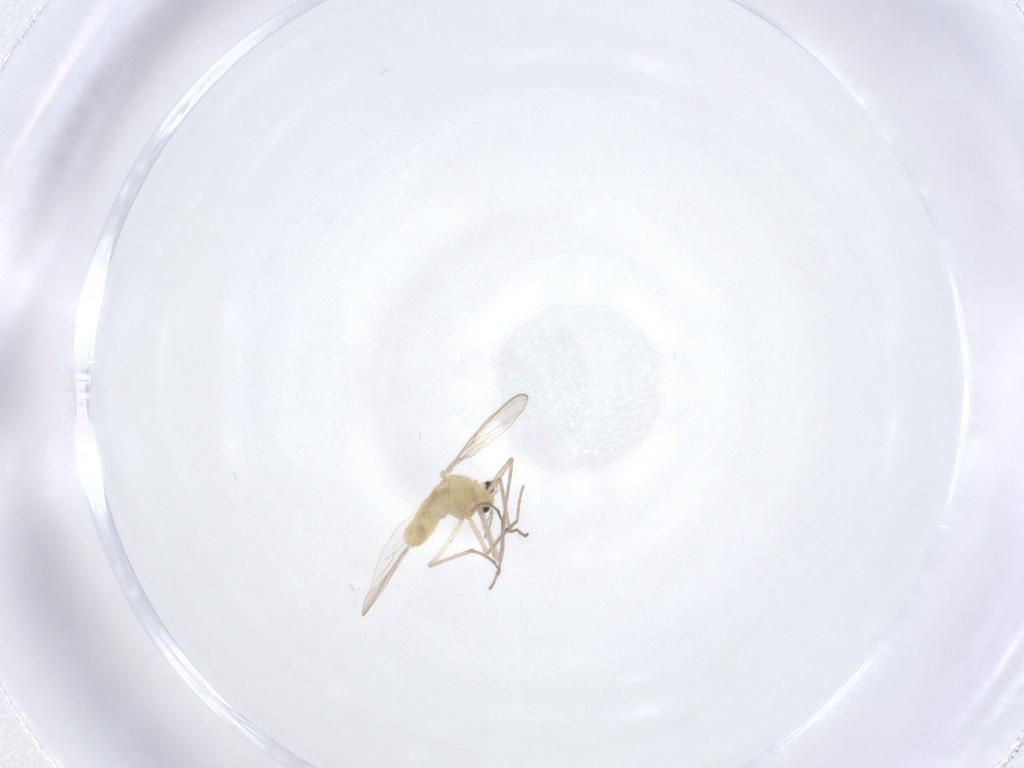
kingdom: Animalia
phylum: Arthropoda
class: Insecta
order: Diptera
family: Chironomidae
